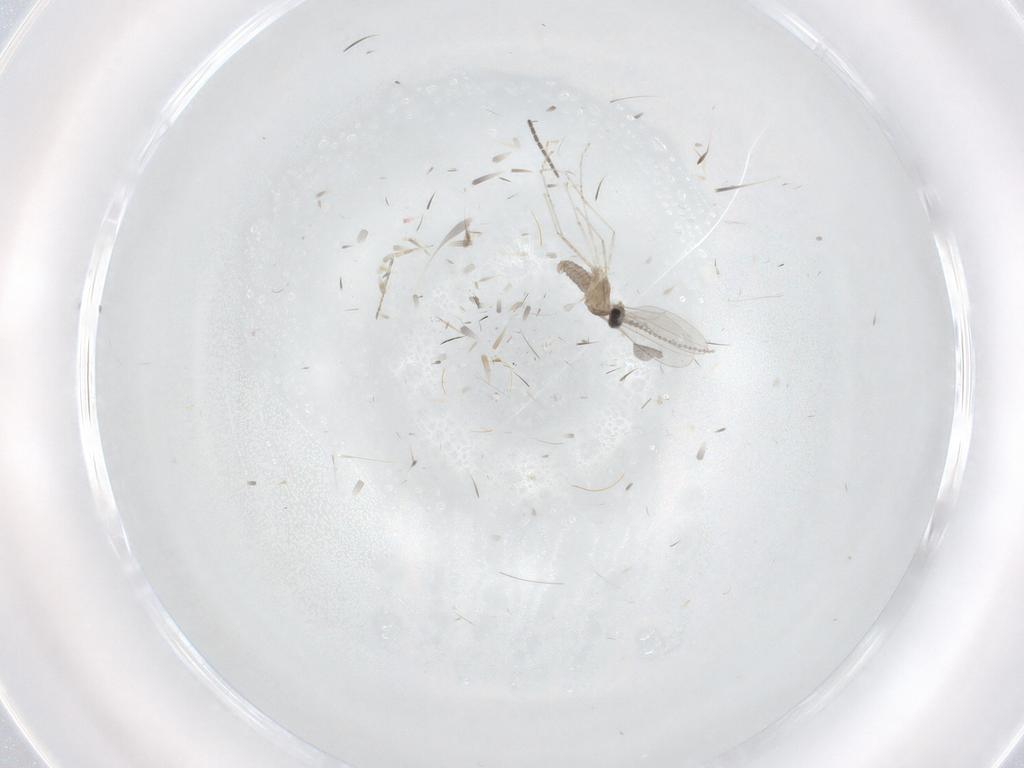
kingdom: Animalia
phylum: Arthropoda
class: Insecta
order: Diptera
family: Cecidomyiidae
